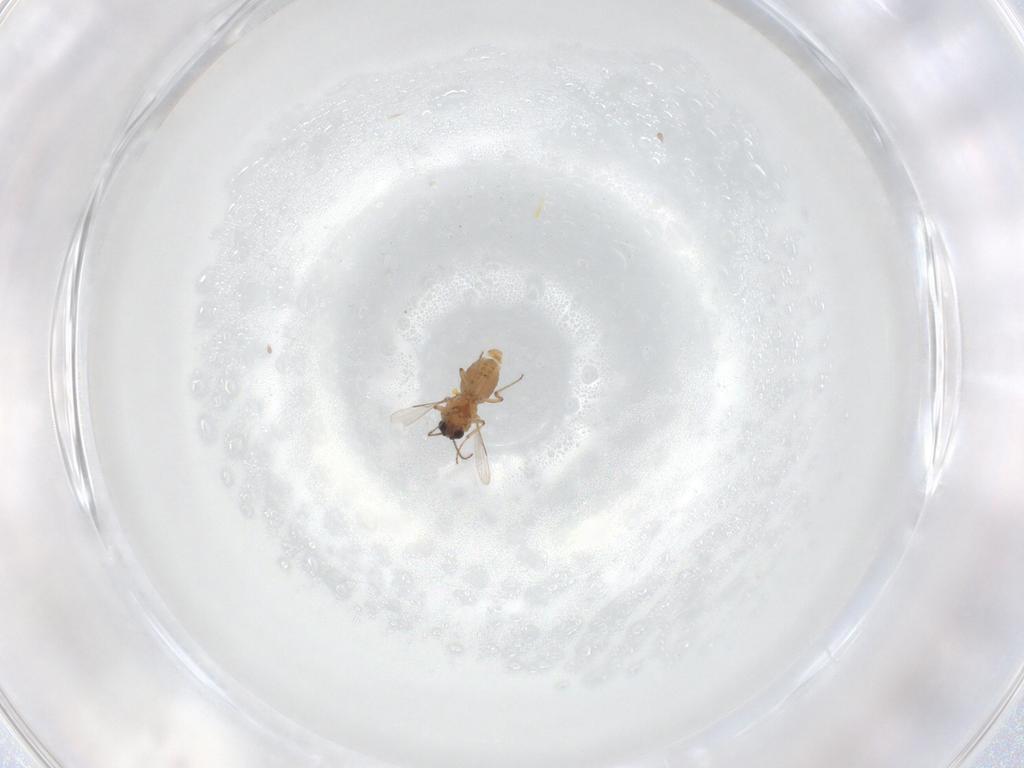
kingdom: Animalia
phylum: Arthropoda
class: Insecta
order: Diptera
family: Ceratopogonidae
